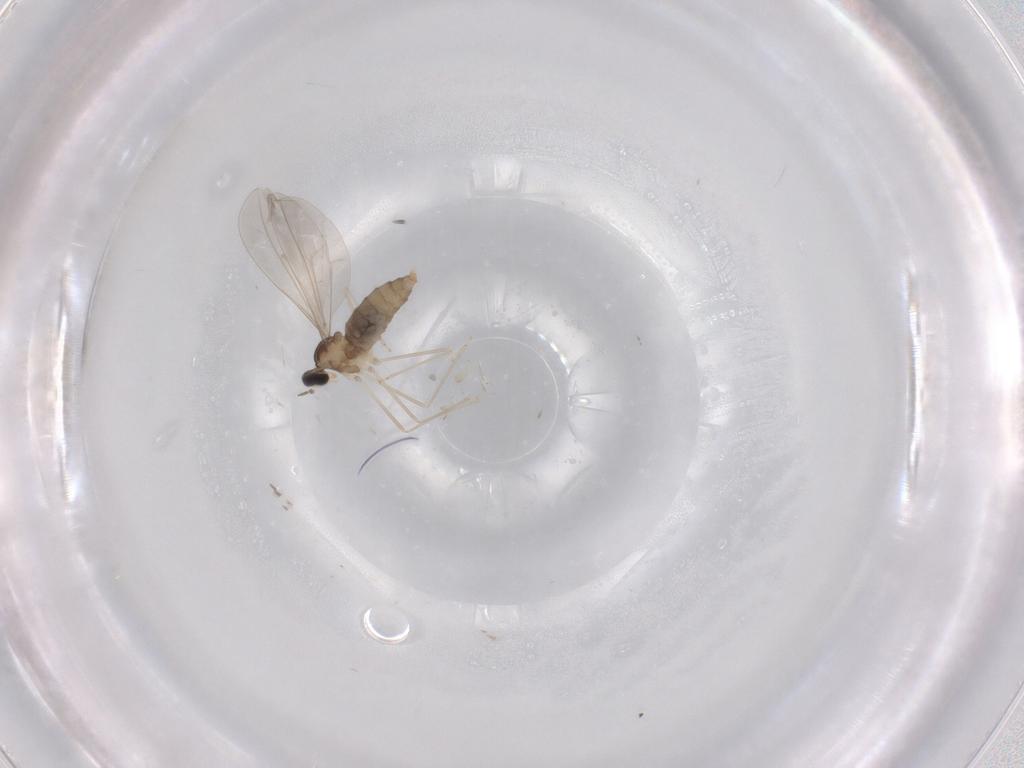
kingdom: Animalia
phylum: Arthropoda
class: Insecta
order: Diptera
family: Cecidomyiidae
